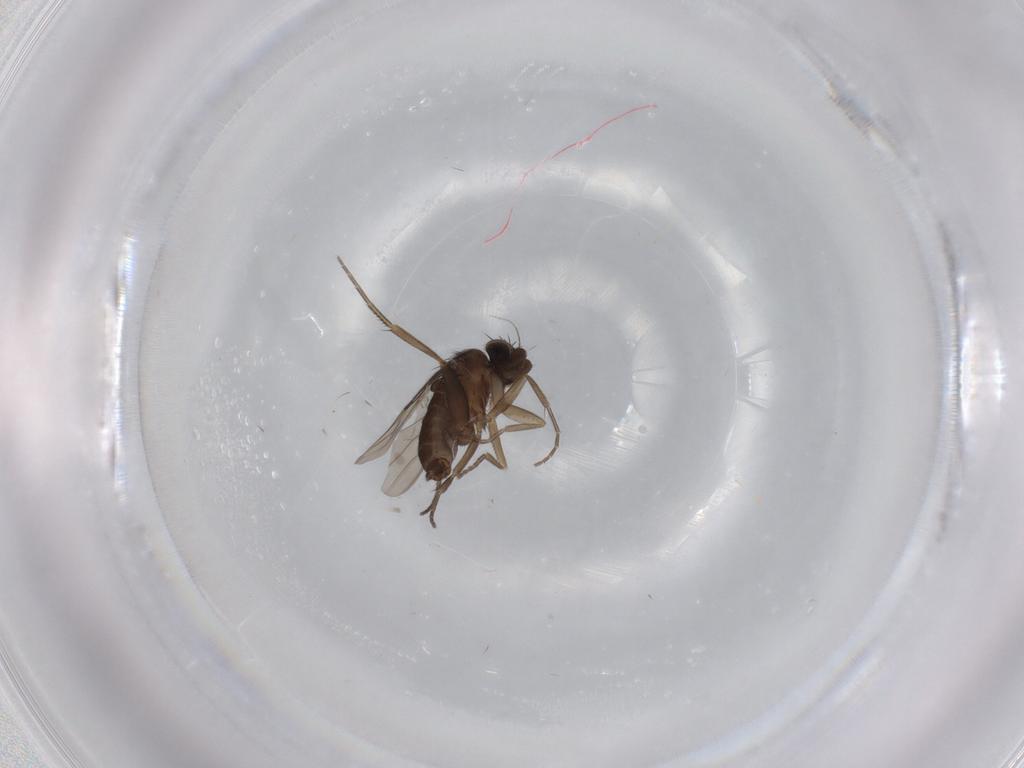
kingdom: Animalia
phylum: Arthropoda
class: Insecta
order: Diptera
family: Phoridae
